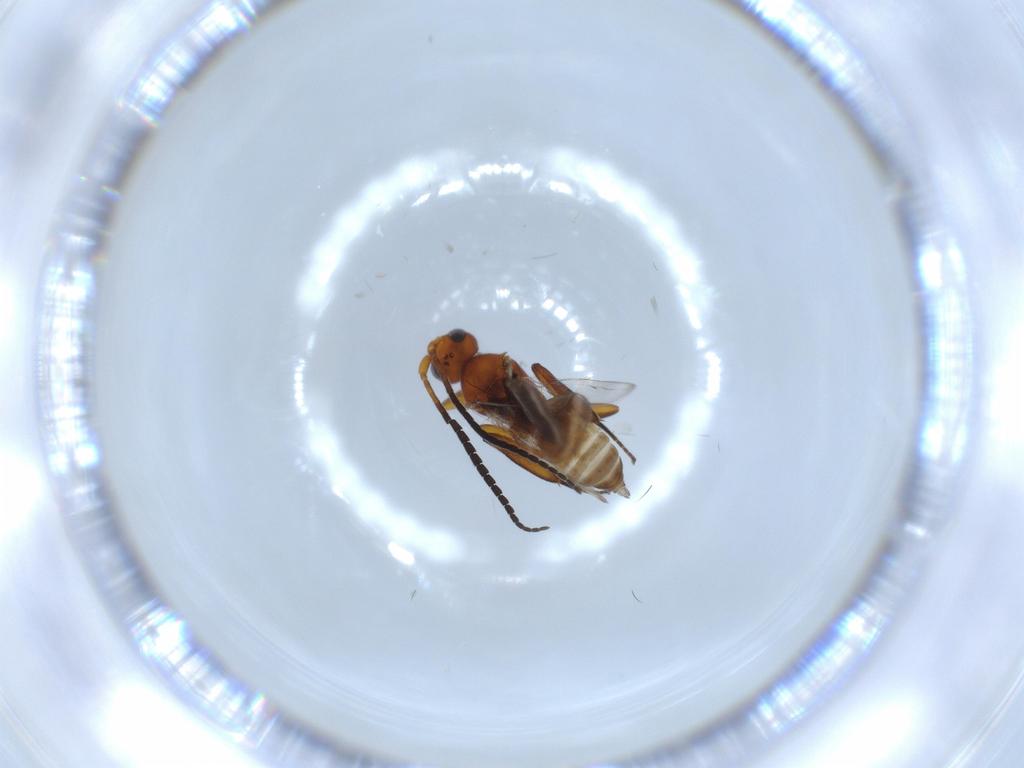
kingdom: Animalia
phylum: Arthropoda
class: Insecta
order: Hymenoptera
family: Braconidae
